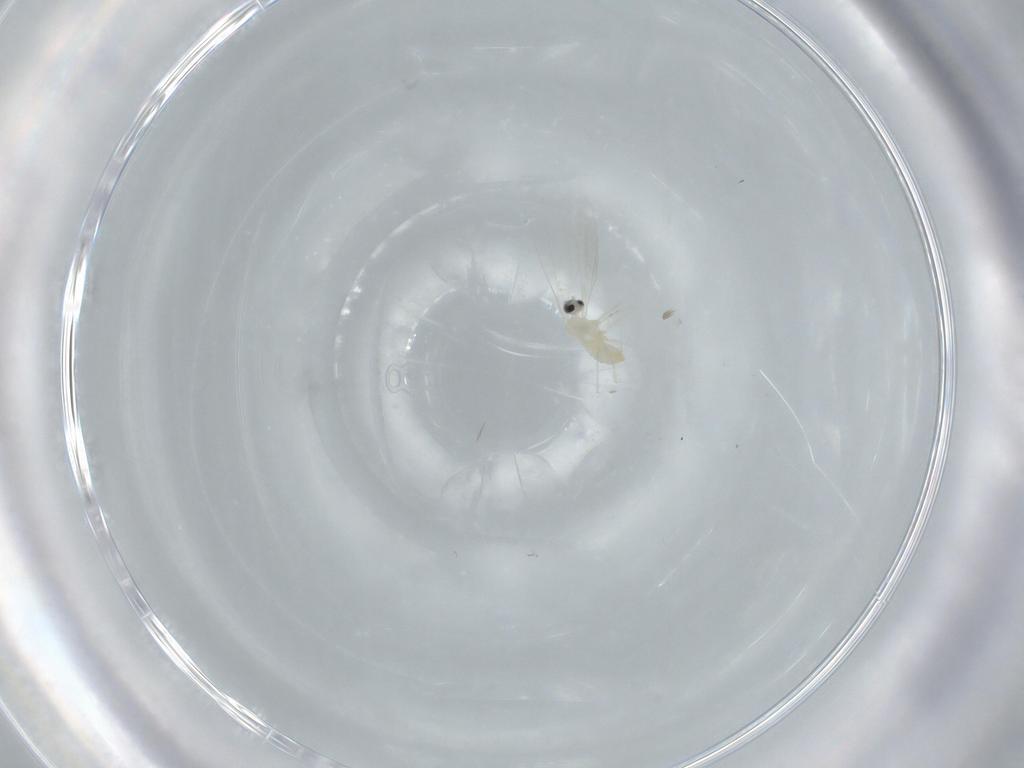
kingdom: Animalia
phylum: Arthropoda
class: Insecta
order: Diptera
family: Cecidomyiidae
